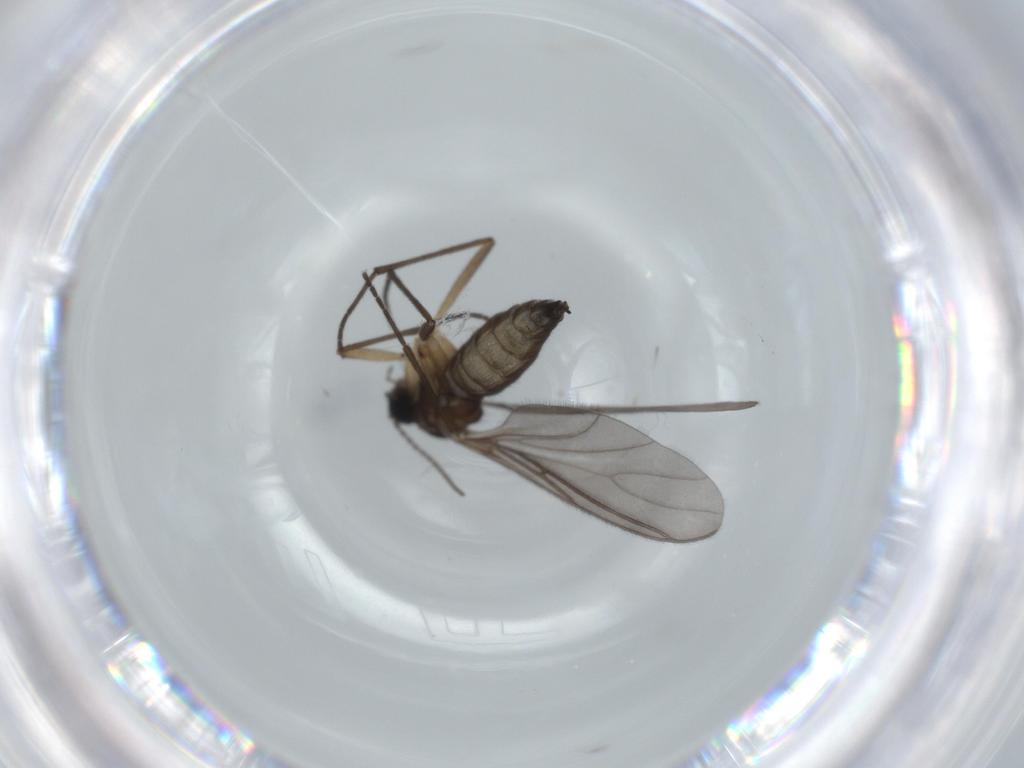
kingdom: Animalia
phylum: Arthropoda
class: Insecta
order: Diptera
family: Sciaridae
